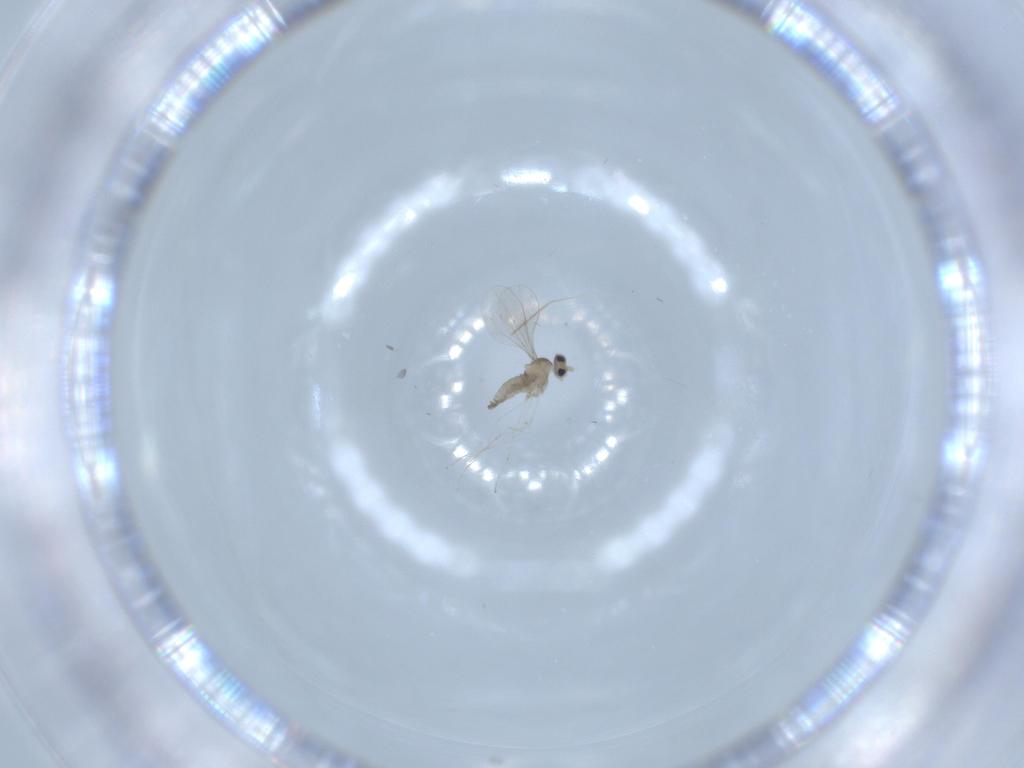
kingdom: Animalia
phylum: Arthropoda
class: Insecta
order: Diptera
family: Cecidomyiidae
